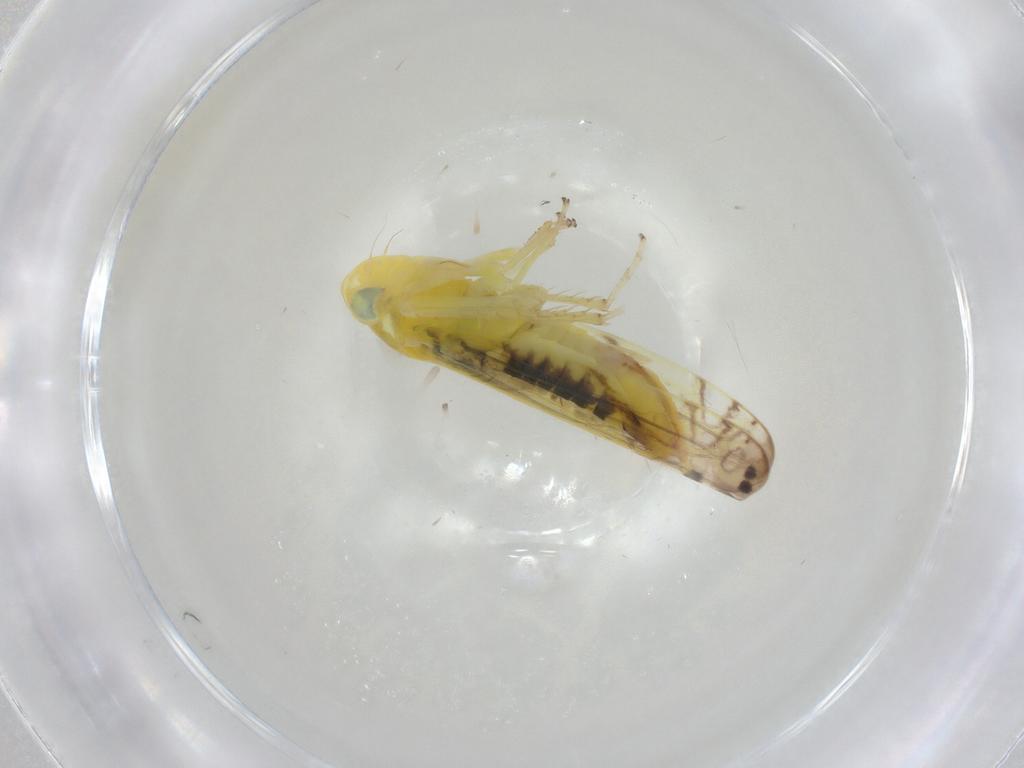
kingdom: Animalia
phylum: Arthropoda
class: Insecta
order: Hemiptera
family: Cicadellidae
